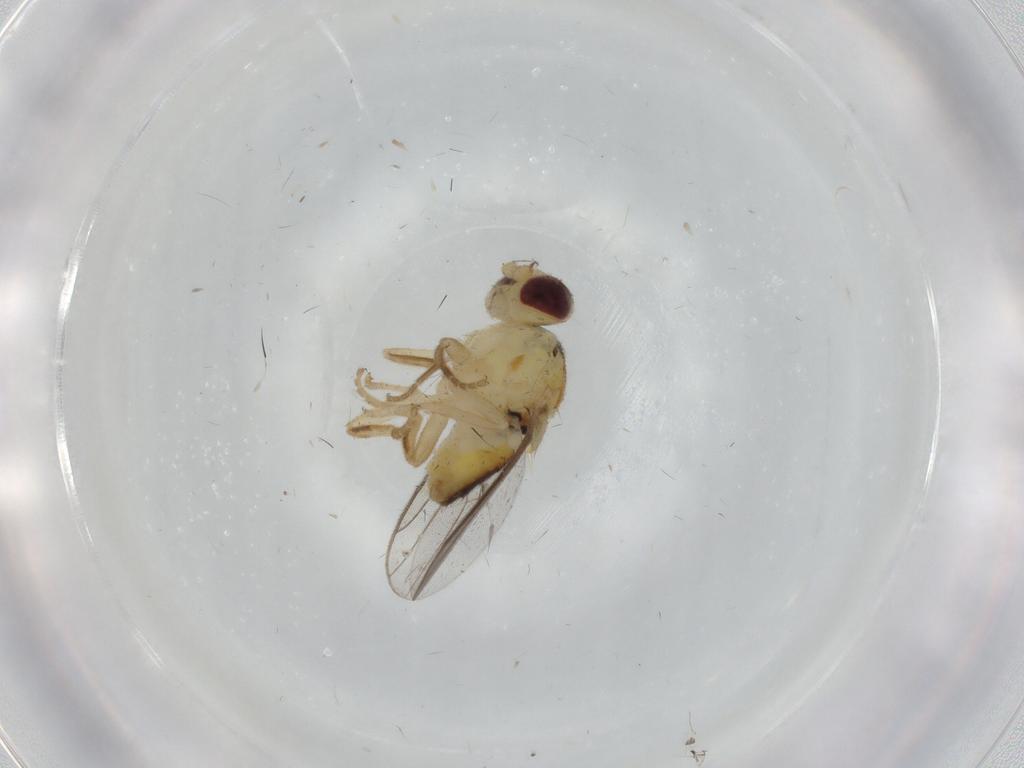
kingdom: Animalia
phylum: Arthropoda
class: Insecta
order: Diptera
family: Chloropidae
